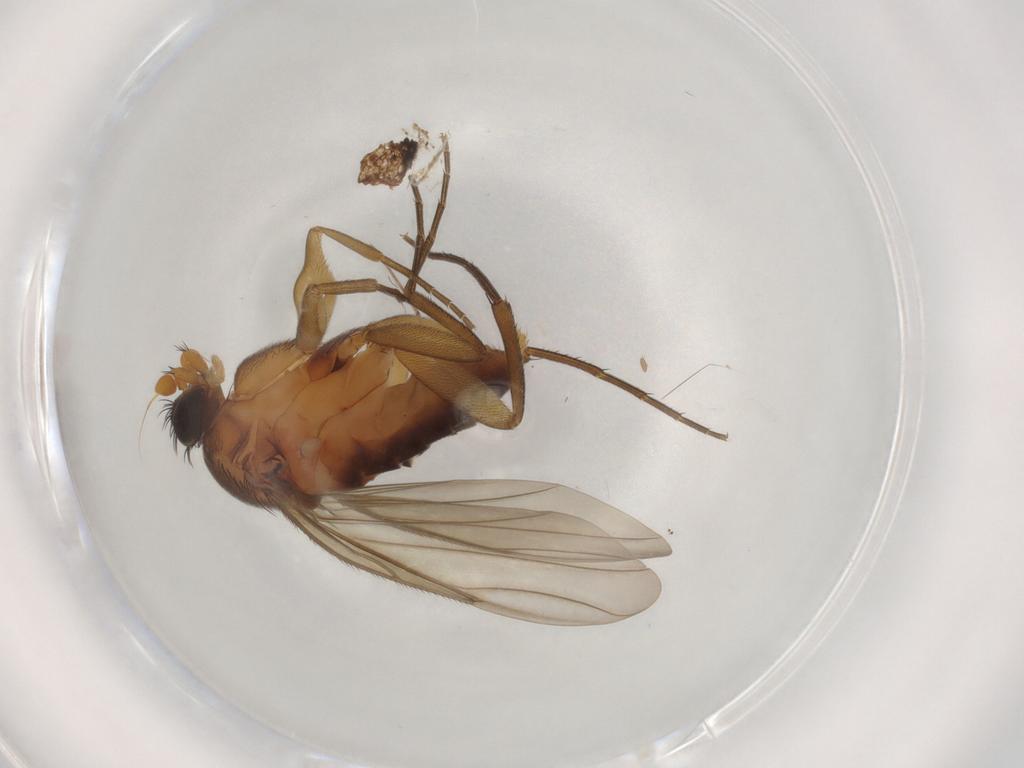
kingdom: Animalia
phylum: Arthropoda
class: Insecta
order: Diptera
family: Phoridae
